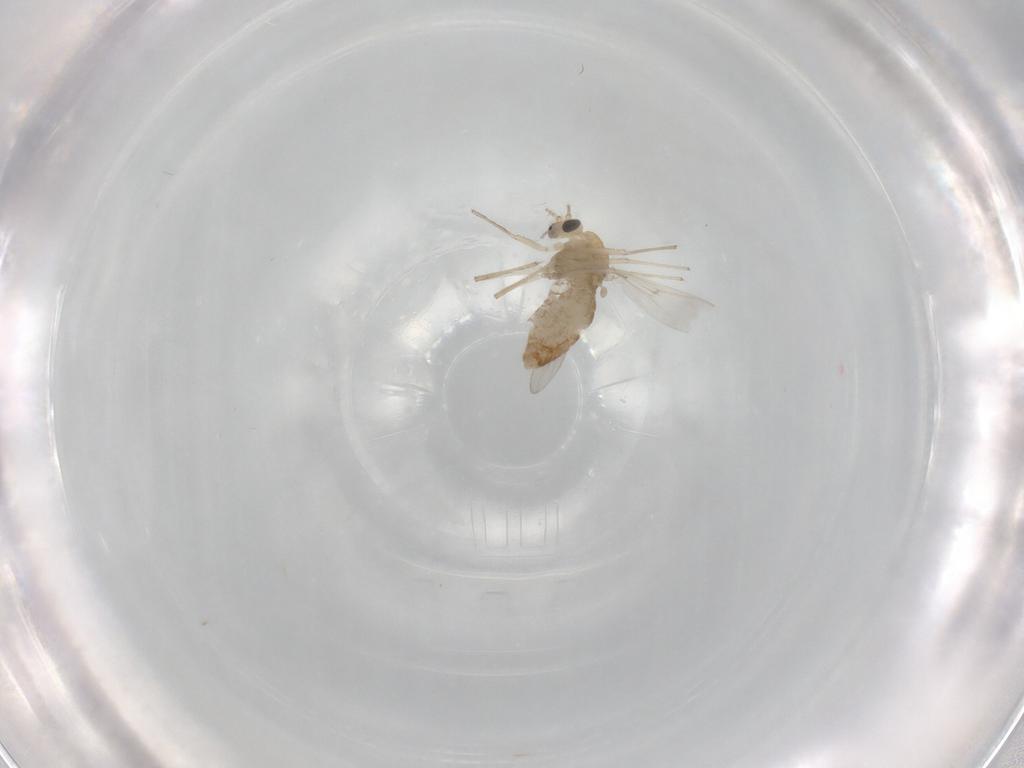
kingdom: Animalia
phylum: Arthropoda
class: Insecta
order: Diptera
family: Chironomidae
